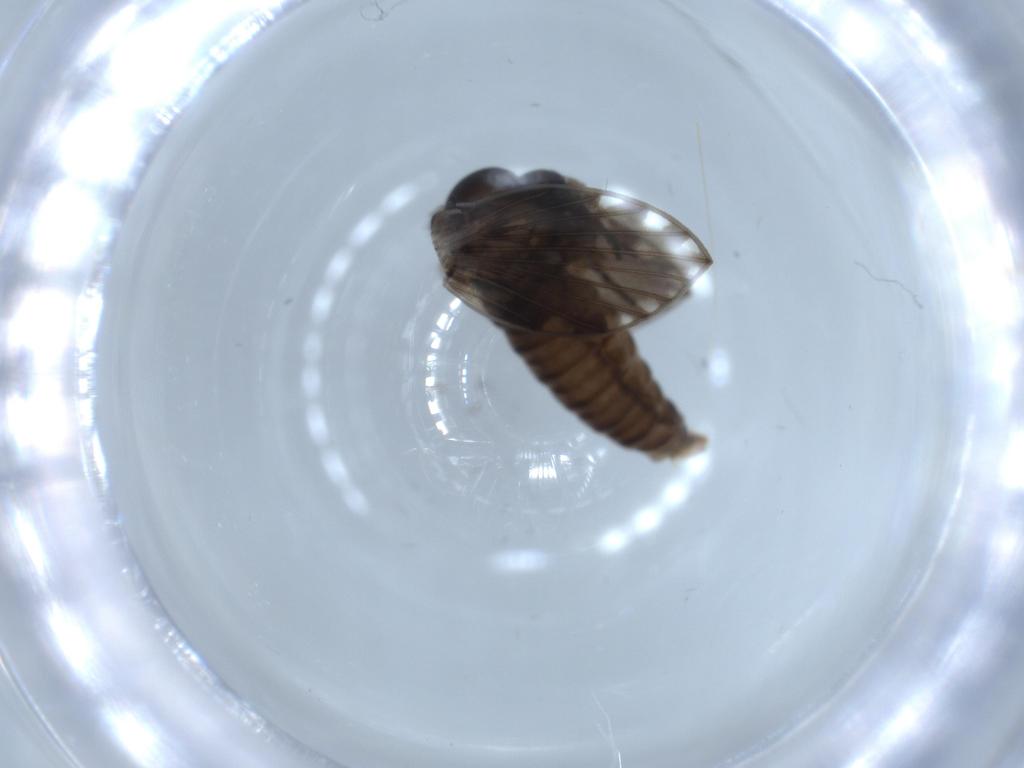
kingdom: Animalia
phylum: Arthropoda
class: Insecta
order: Diptera
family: Psychodidae
